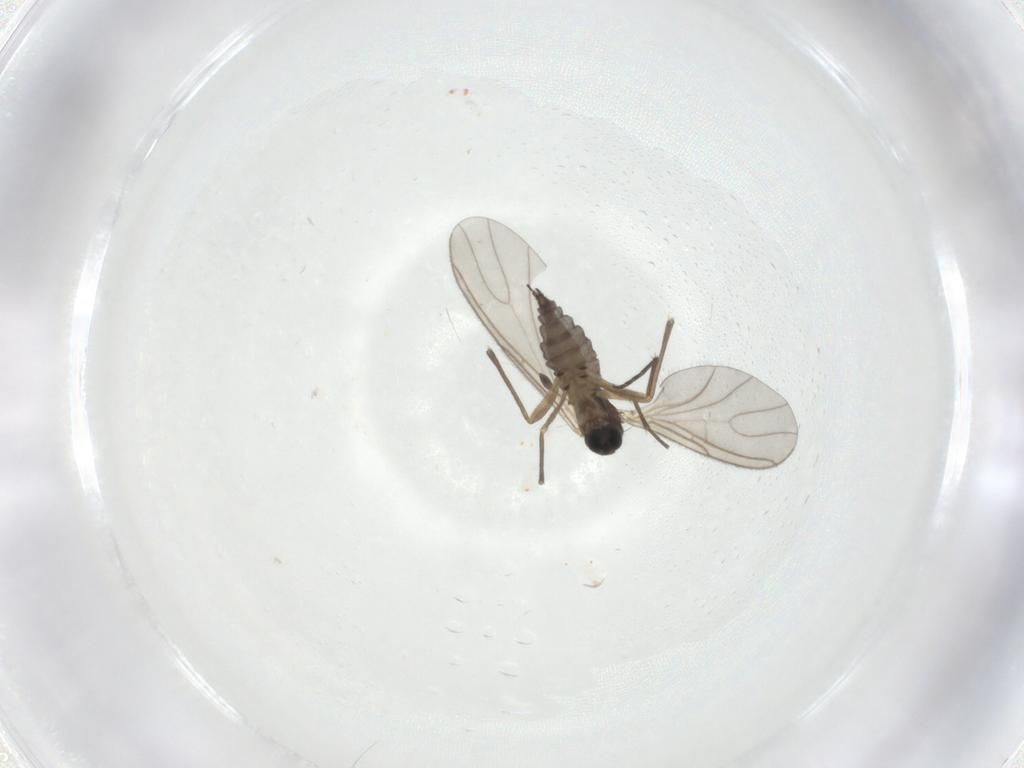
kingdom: Animalia
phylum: Arthropoda
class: Insecta
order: Diptera
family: Sciaridae
